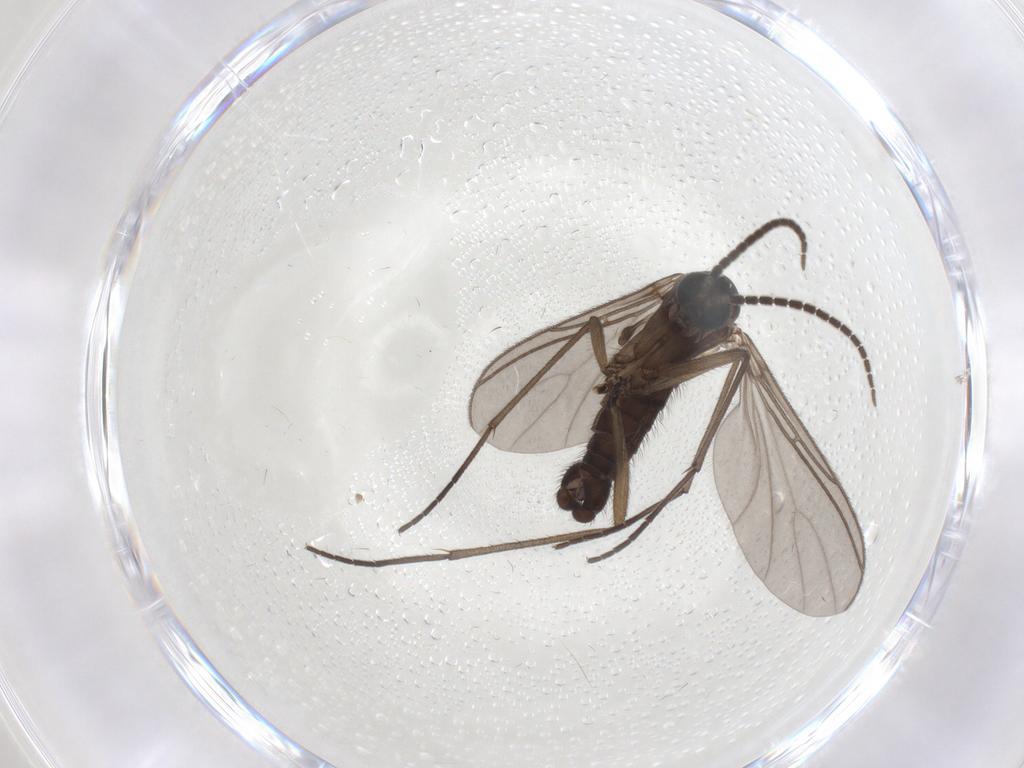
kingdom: Animalia
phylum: Arthropoda
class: Insecta
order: Diptera
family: Sciaridae
